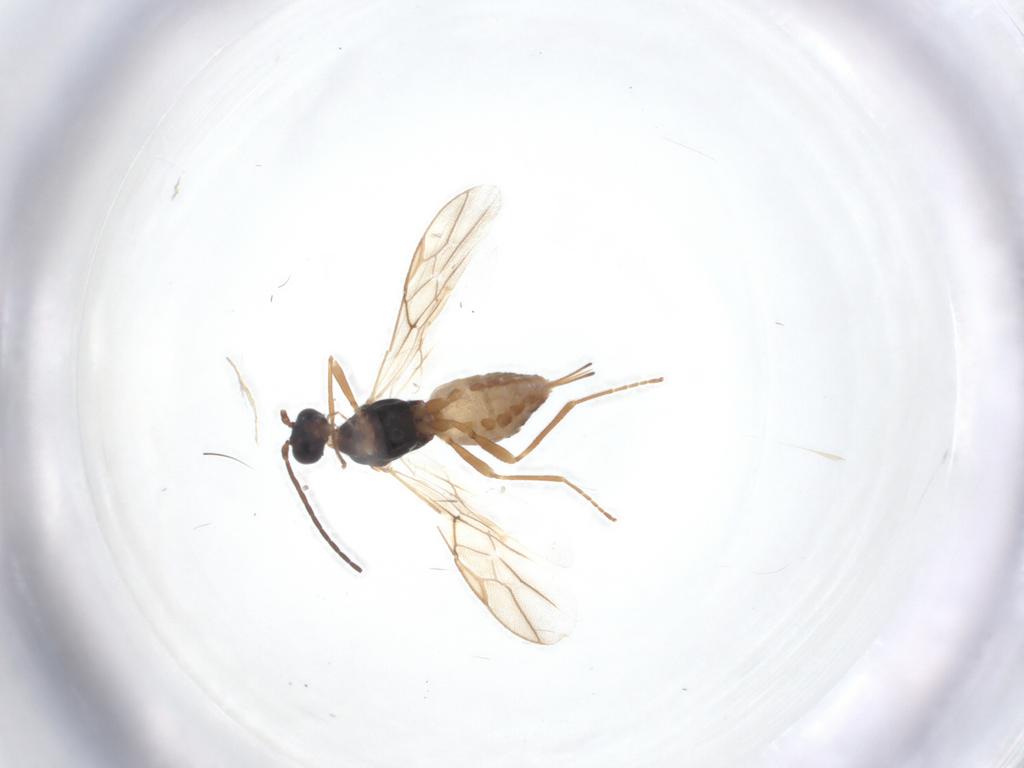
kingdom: Animalia
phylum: Arthropoda
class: Insecta
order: Hymenoptera
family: Braconidae
